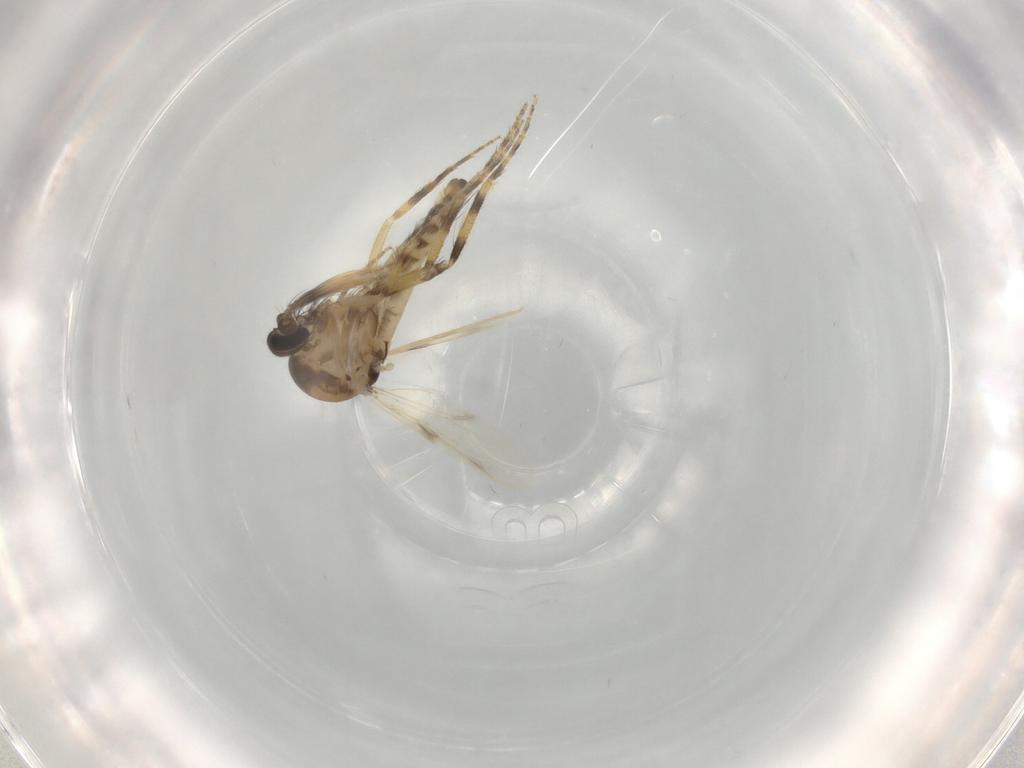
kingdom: Animalia
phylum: Arthropoda
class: Insecta
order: Diptera
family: Ceratopogonidae
